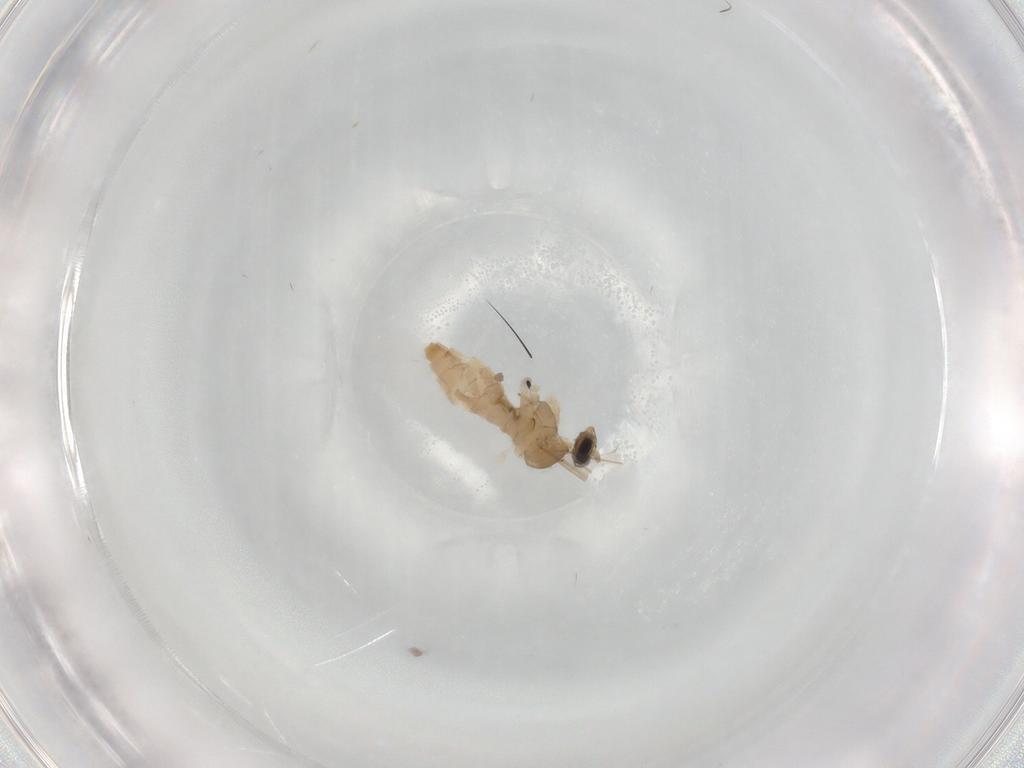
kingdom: Animalia
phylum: Arthropoda
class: Insecta
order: Diptera
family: Cecidomyiidae
